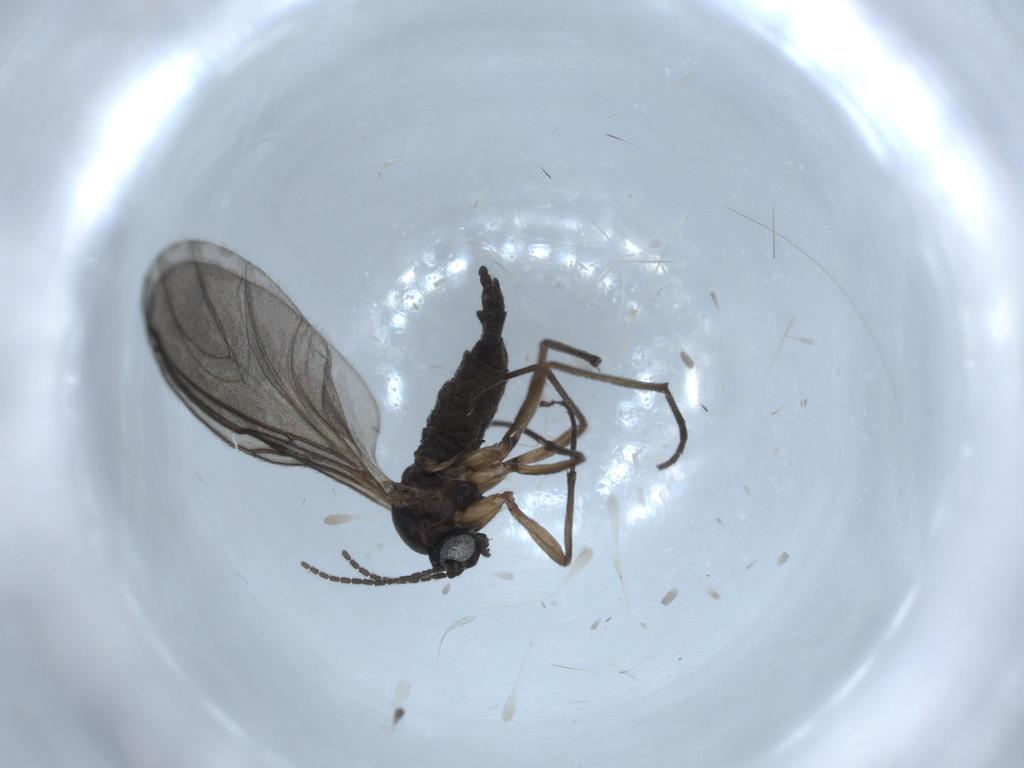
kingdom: Animalia
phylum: Arthropoda
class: Insecta
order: Diptera
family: Sciaridae
